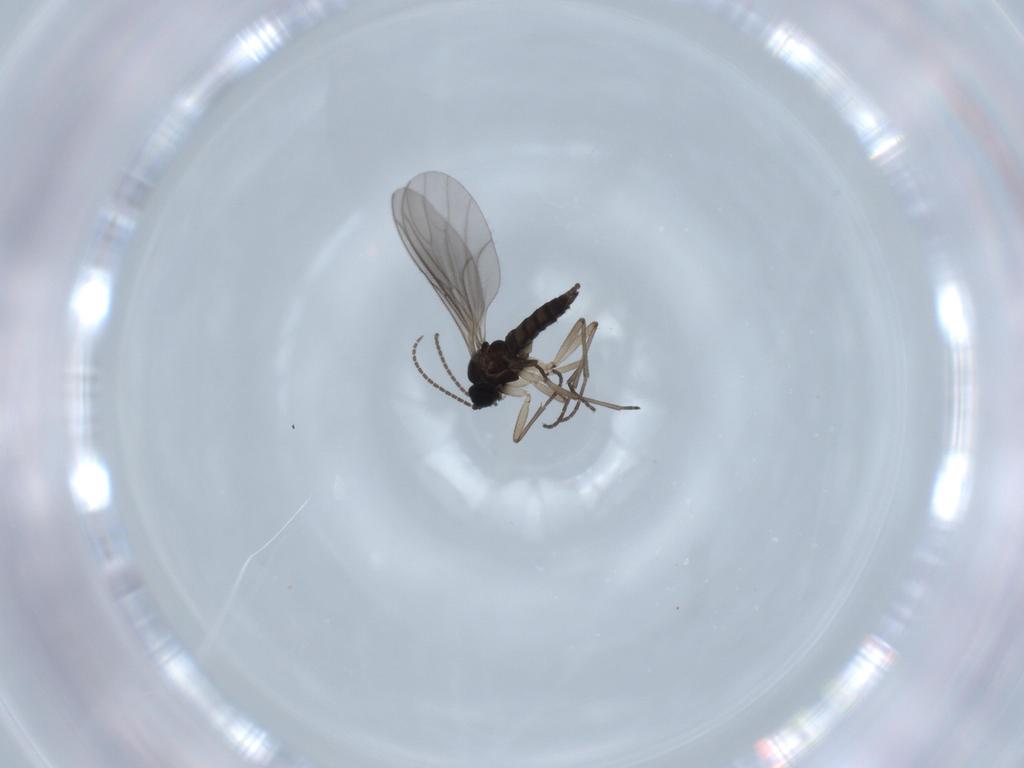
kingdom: Animalia
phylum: Arthropoda
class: Insecta
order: Diptera
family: Sciaridae
